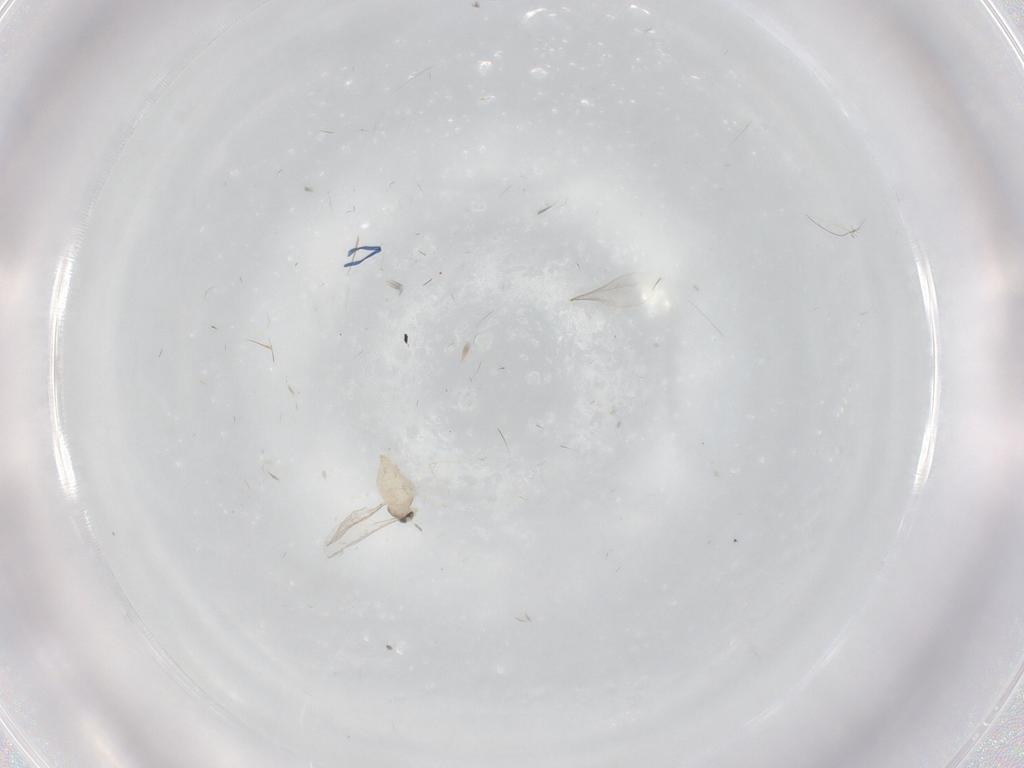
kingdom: Animalia
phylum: Arthropoda
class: Insecta
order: Diptera
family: Cecidomyiidae
